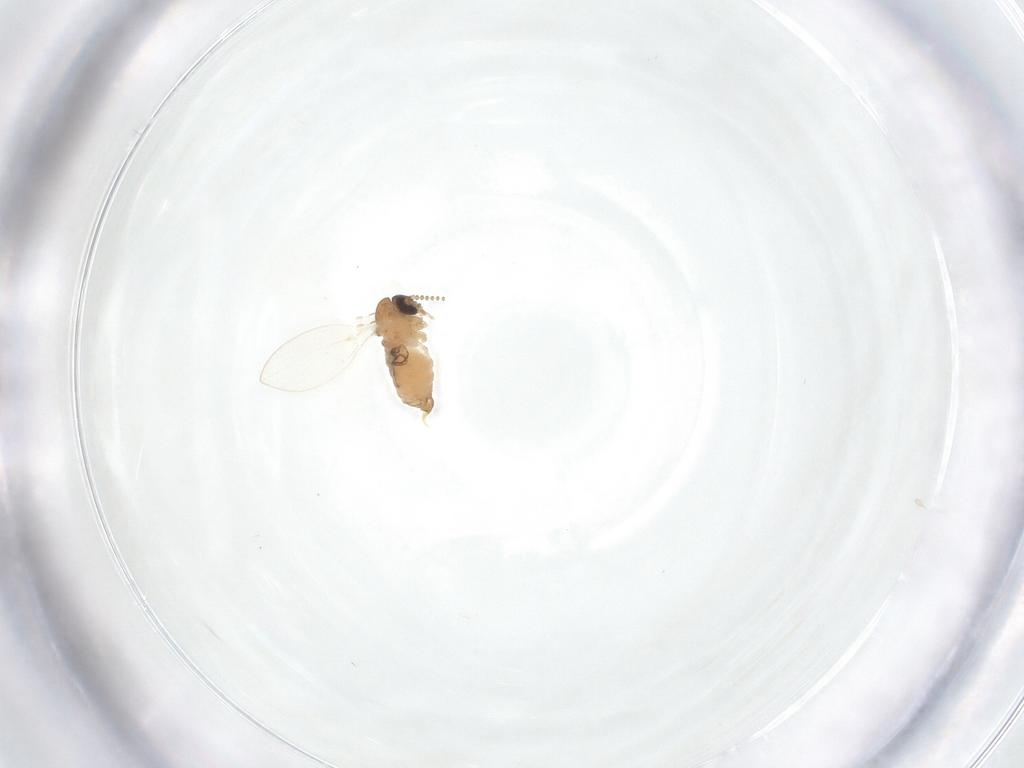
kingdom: Animalia
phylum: Arthropoda
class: Insecta
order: Diptera
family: Psychodidae
